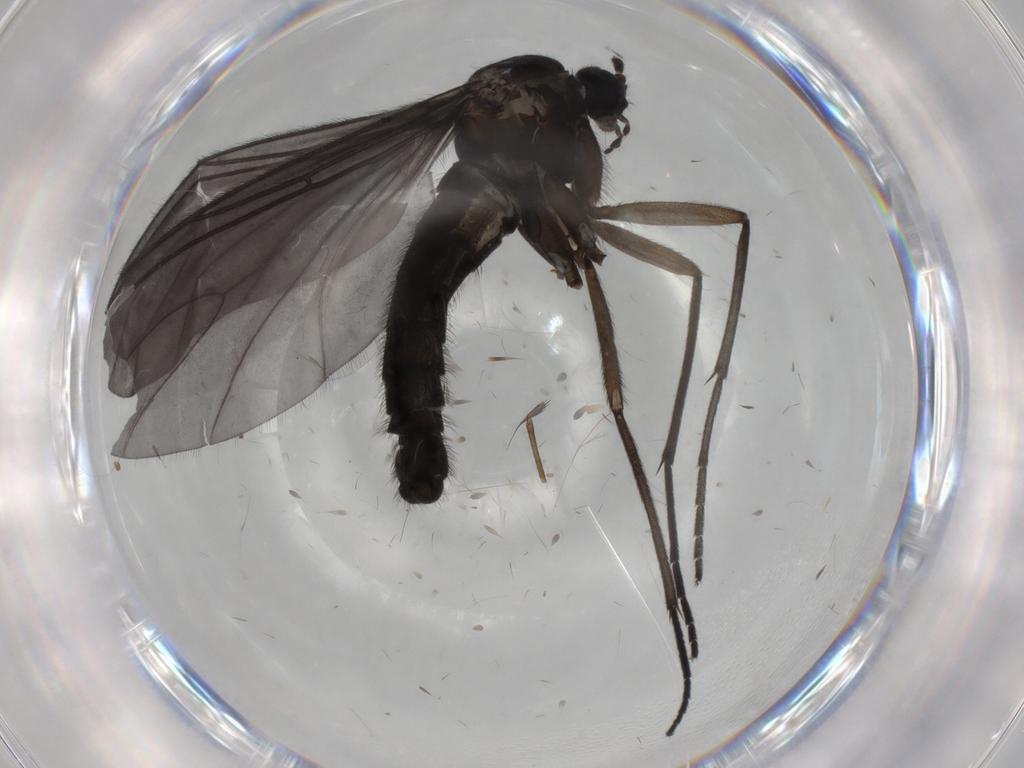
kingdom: Animalia
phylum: Arthropoda
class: Insecta
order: Diptera
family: Sciaridae
